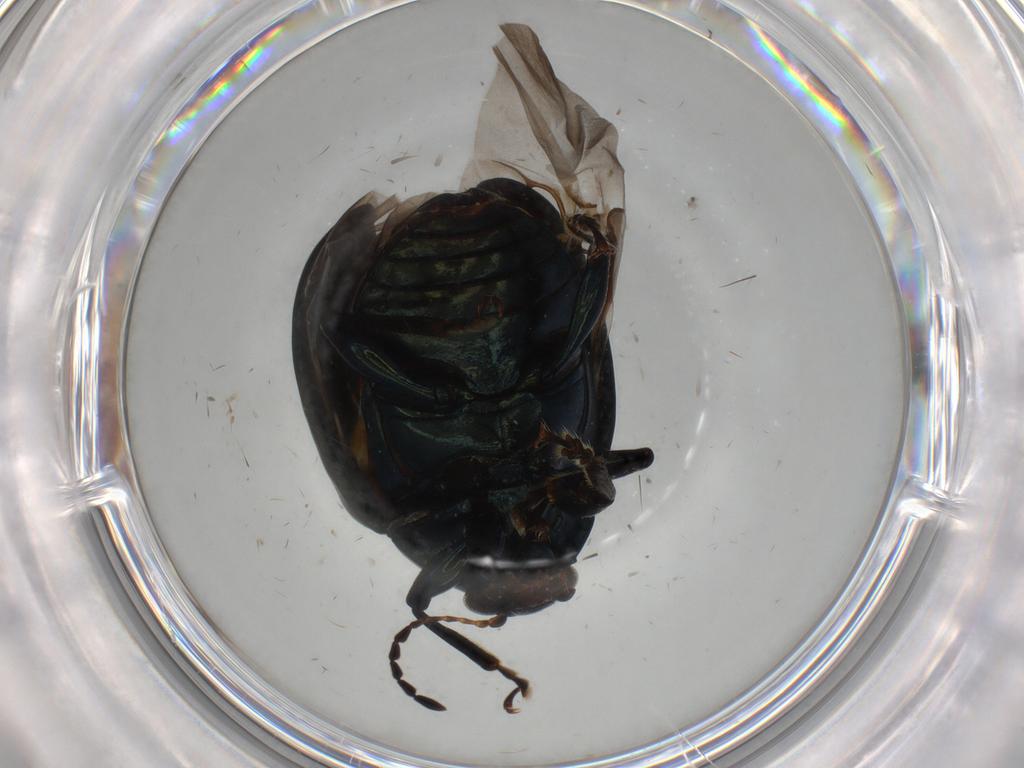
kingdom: Animalia
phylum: Arthropoda
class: Insecta
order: Coleoptera
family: Chrysomelidae
